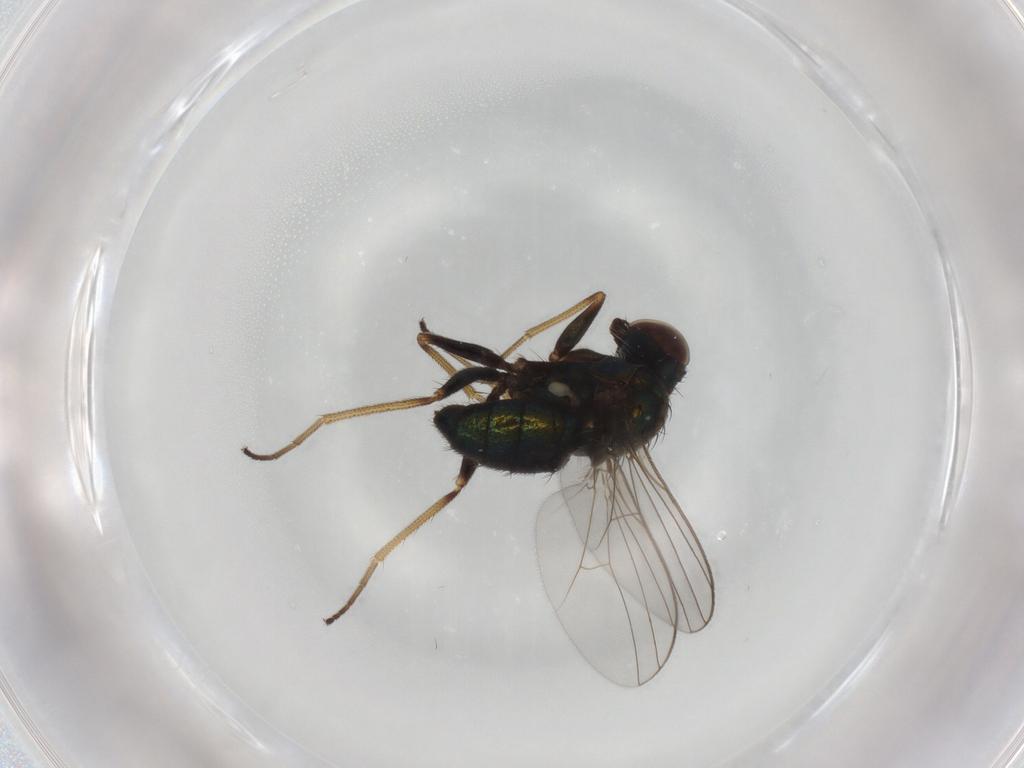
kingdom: Animalia
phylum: Arthropoda
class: Insecta
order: Diptera
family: Dolichopodidae
